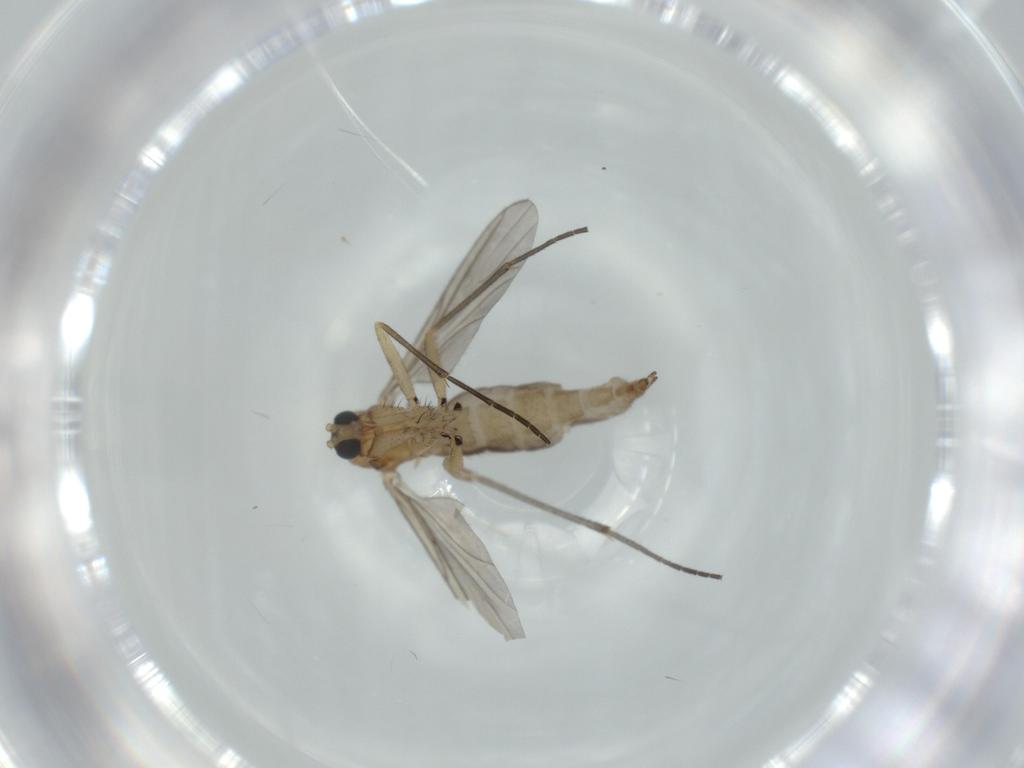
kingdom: Animalia
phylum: Arthropoda
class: Insecta
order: Diptera
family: Sciaridae
